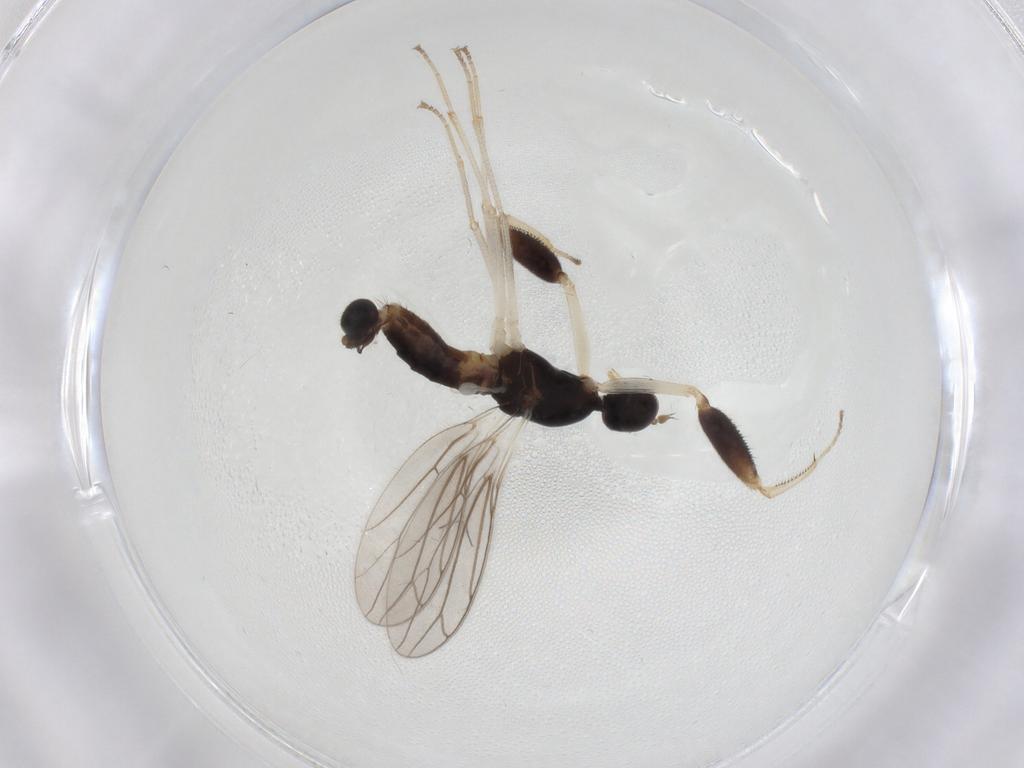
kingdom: Animalia
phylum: Arthropoda
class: Insecta
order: Diptera
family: Empididae
